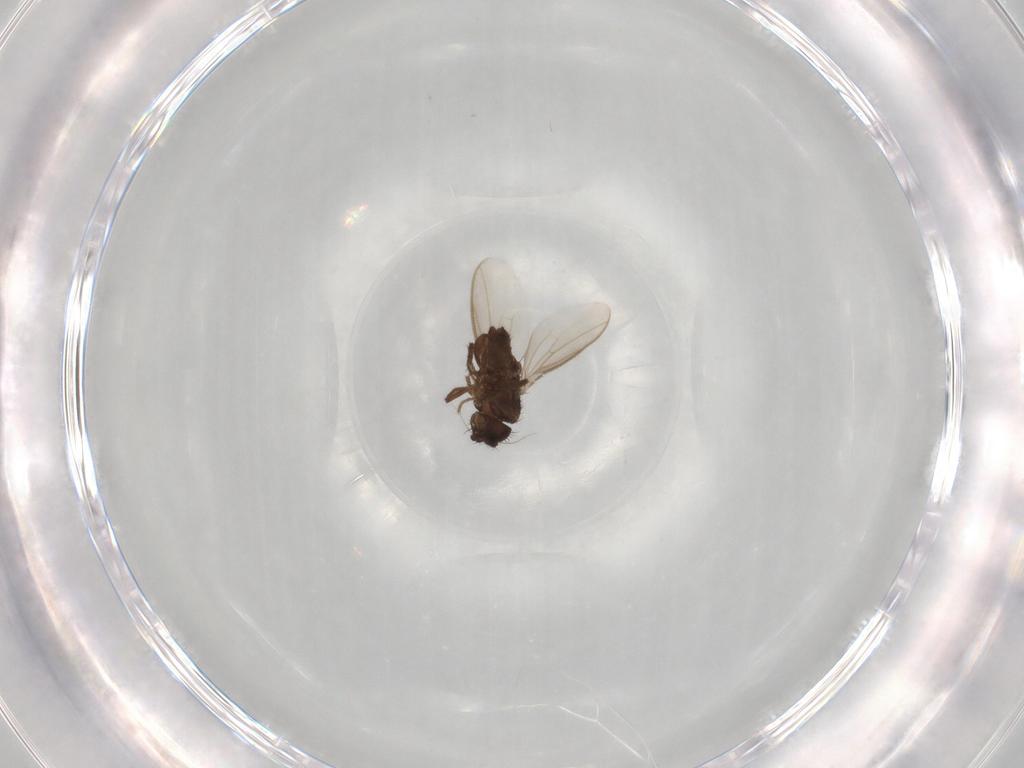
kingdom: Animalia
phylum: Arthropoda
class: Insecta
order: Diptera
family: Sphaeroceridae
